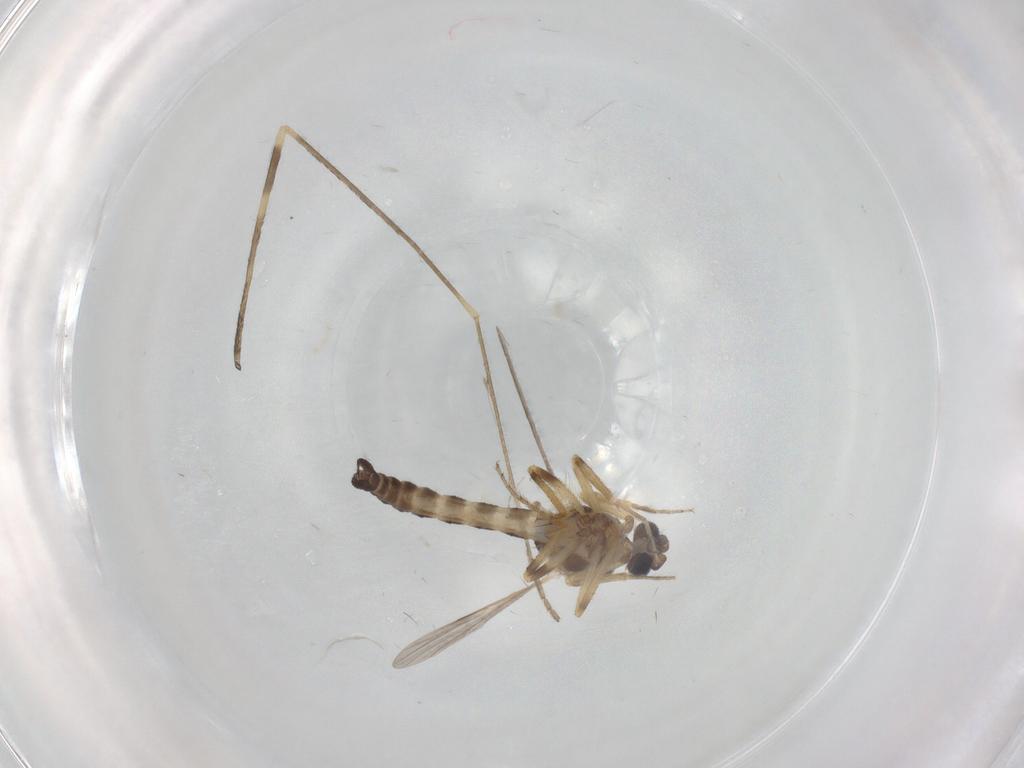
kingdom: Animalia
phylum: Arthropoda
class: Insecta
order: Diptera
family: Ceratopogonidae
